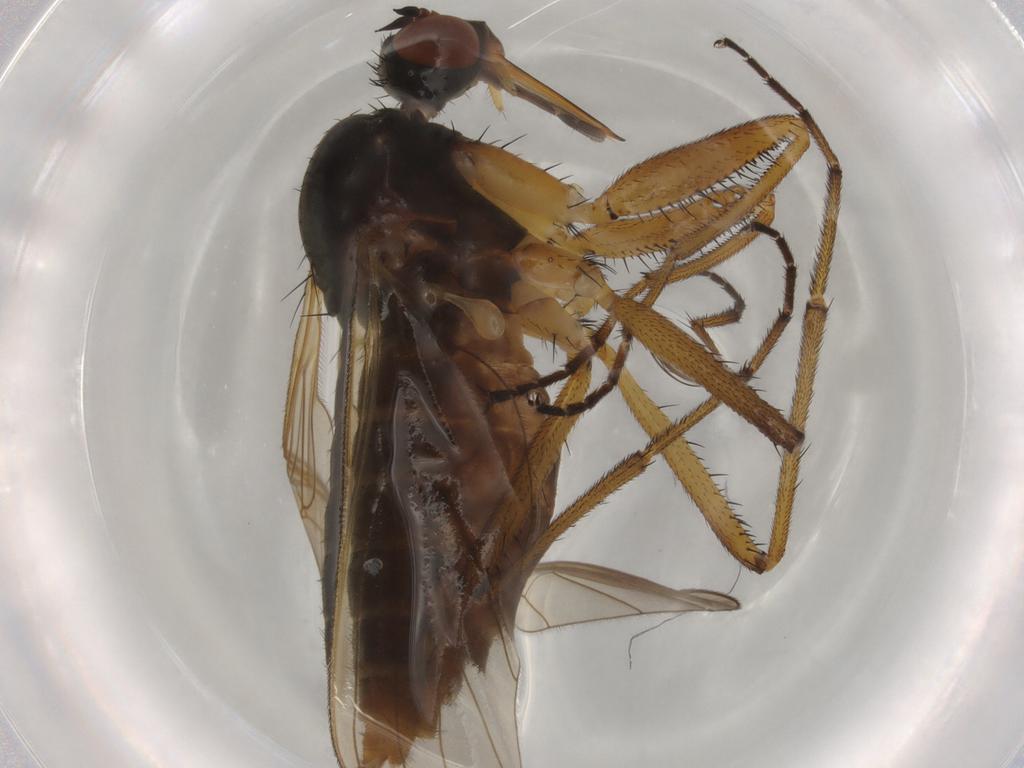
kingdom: Animalia
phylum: Arthropoda
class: Insecta
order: Diptera
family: Empididae
